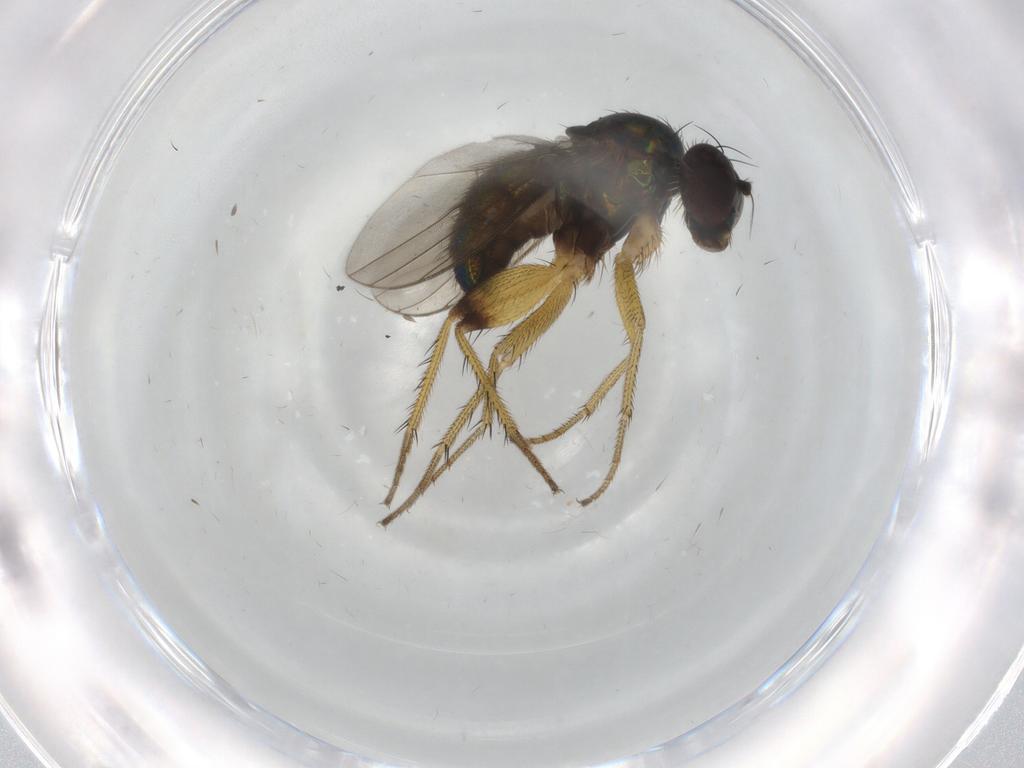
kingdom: Animalia
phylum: Arthropoda
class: Insecta
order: Diptera
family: Dolichopodidae
